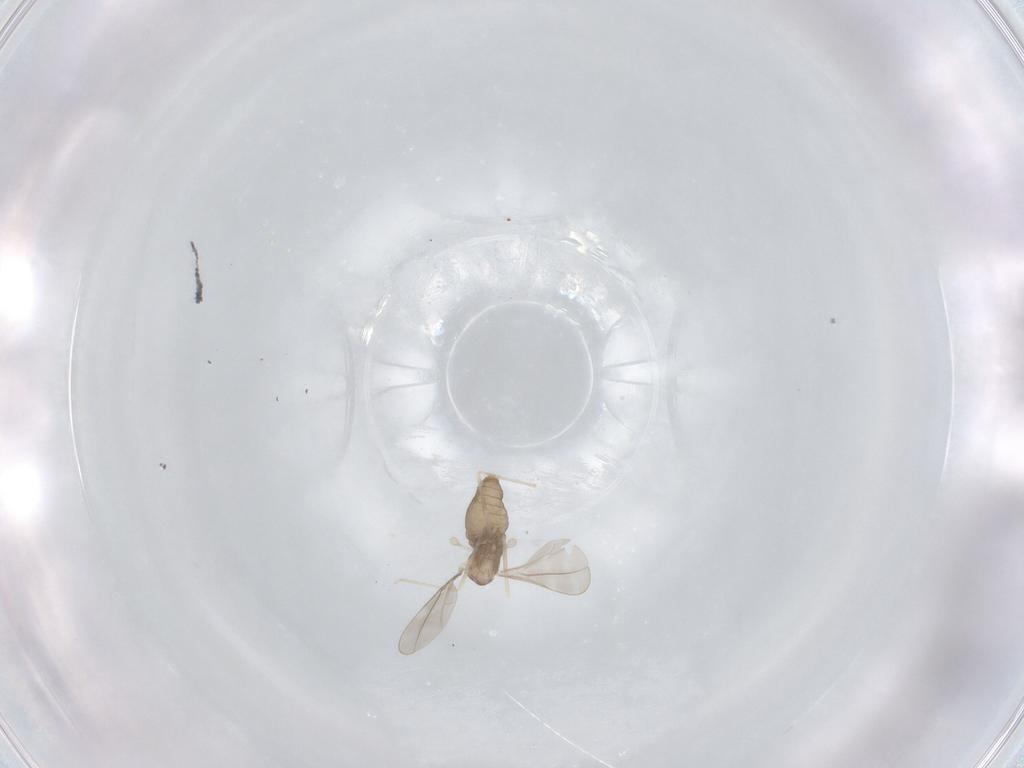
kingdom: Animalia
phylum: Arthropoda
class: Insecta
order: Diptera
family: Cecidomyiidae
